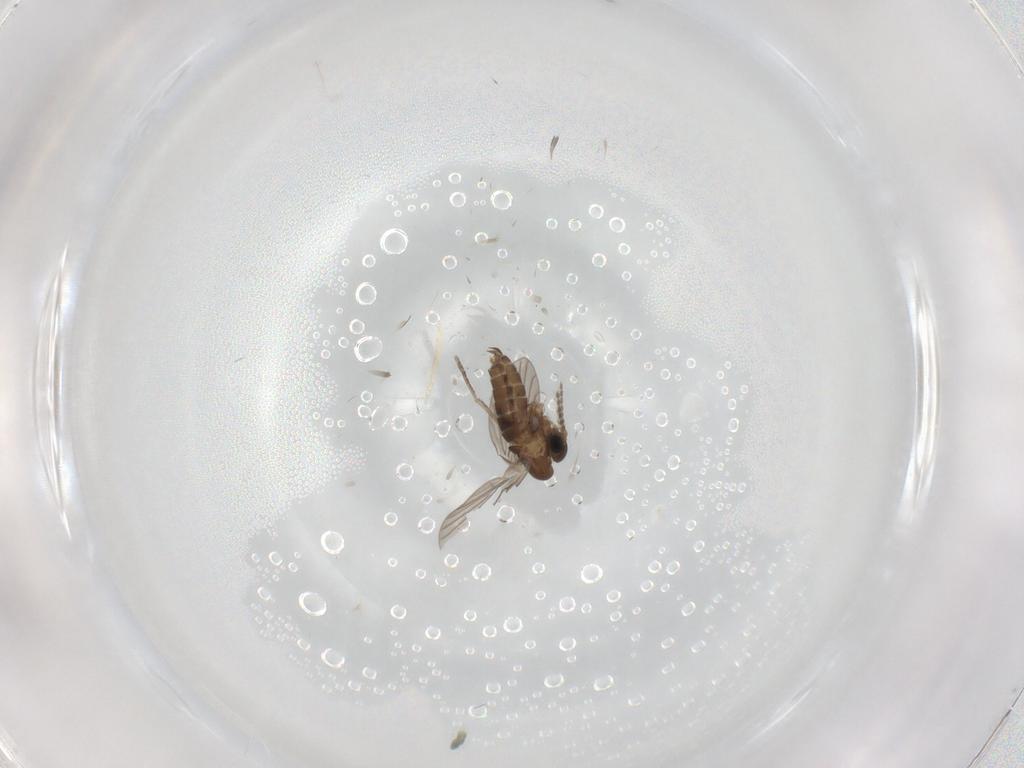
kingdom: Animalia
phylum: Arthropoda
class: Insecta
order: Diptera
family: Ceratopogonidae
